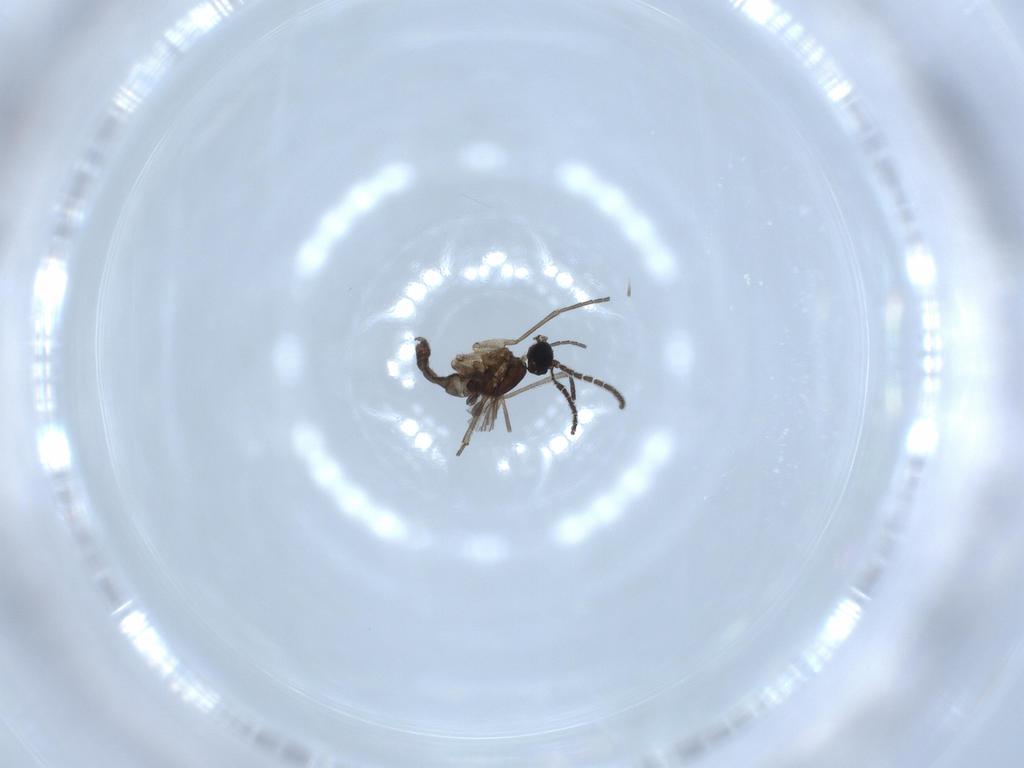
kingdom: Animalia
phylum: Arthropoda
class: Insecta
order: Diptera
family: Sciaridae
